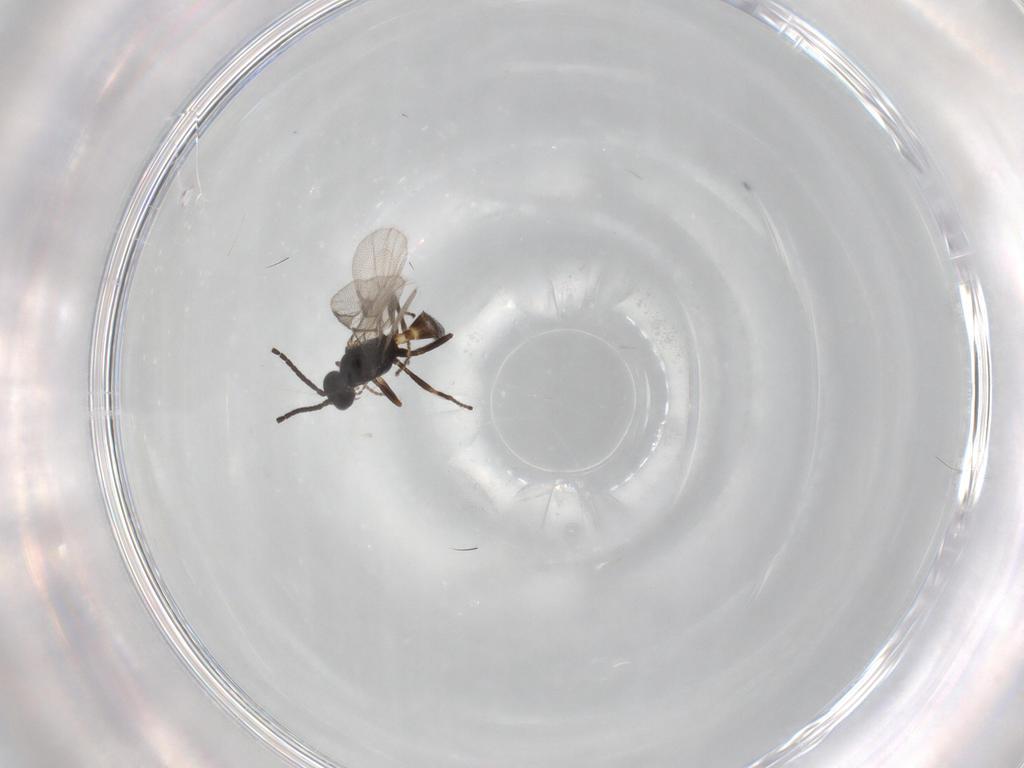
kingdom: Animalia
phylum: Arthropoda
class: Insecta
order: Hymenoptera
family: Braconidae
